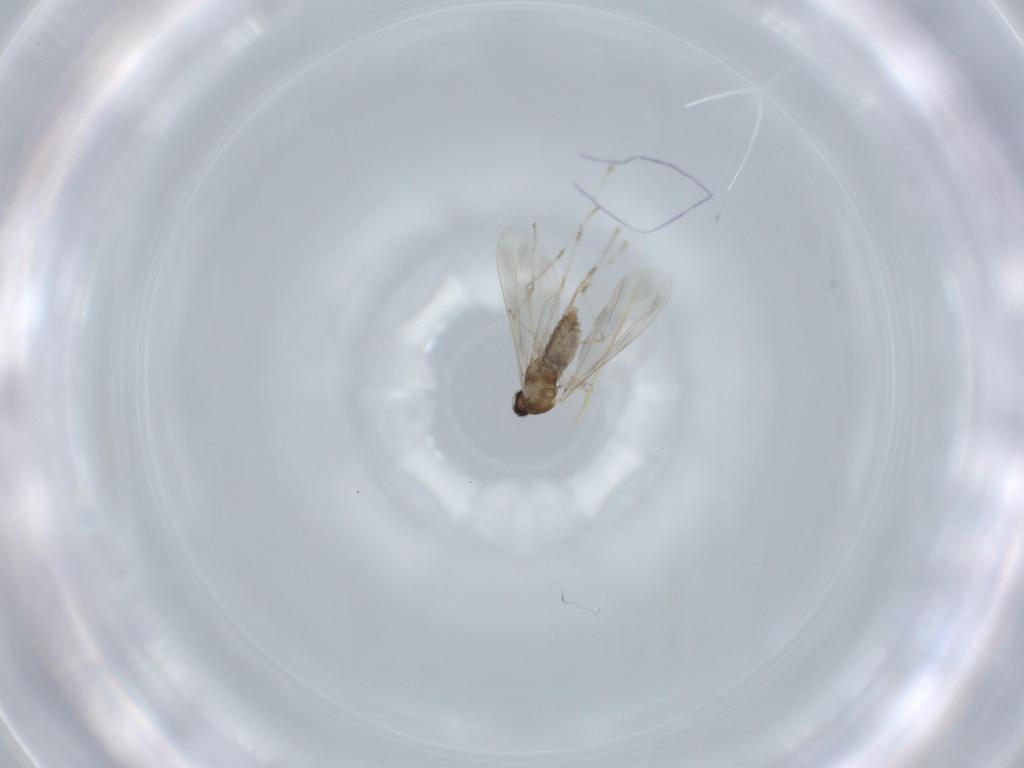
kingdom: Animalia
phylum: Arthropoda
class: Insecta
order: Diptera
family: Cecidomyiidae
